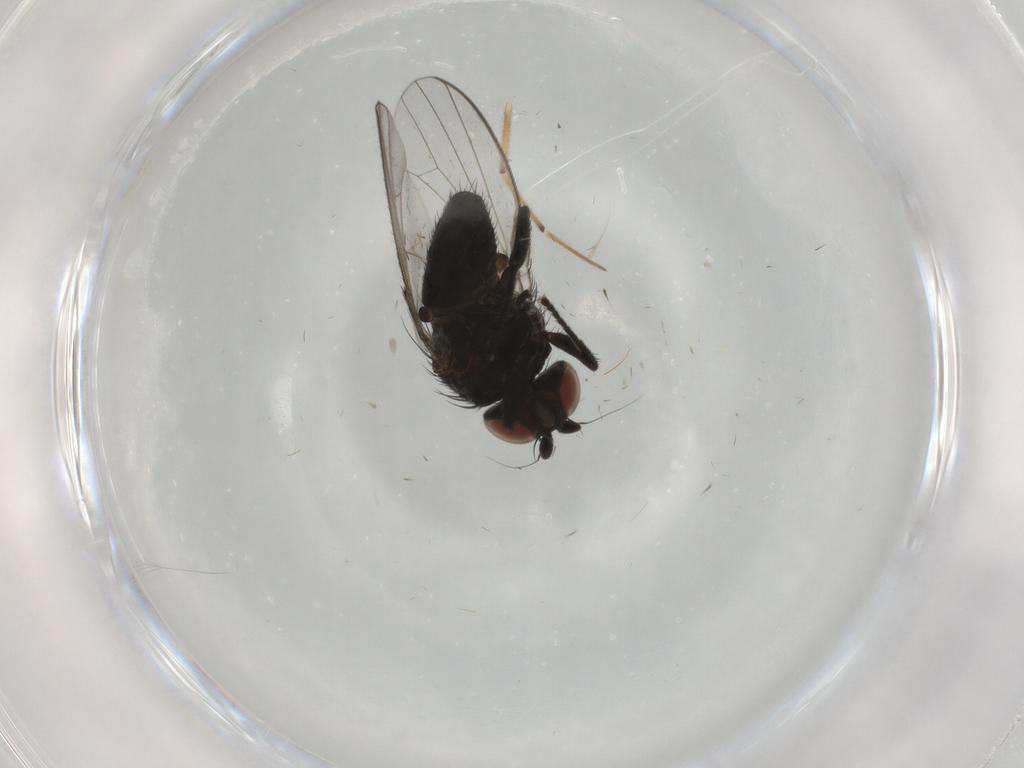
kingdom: Animalia
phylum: Arthropoda
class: Insecta
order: Diptera
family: Milichiidae
